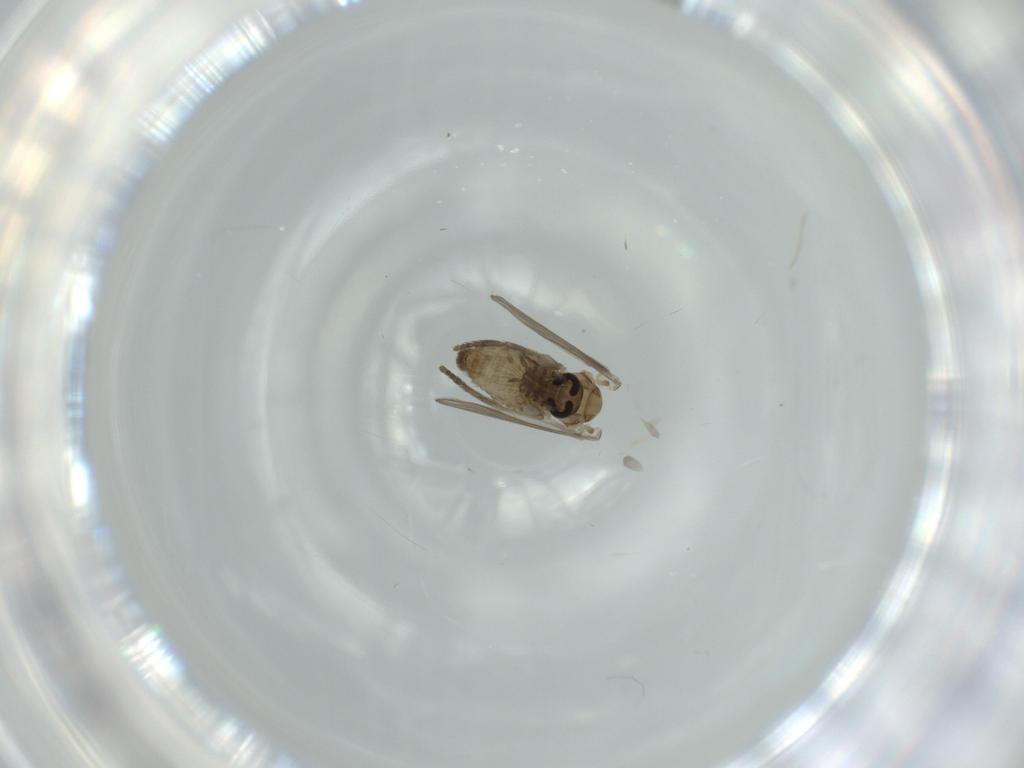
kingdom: Animalia
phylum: Arthropoda
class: Insecta
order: Diptera
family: Psychodidae
